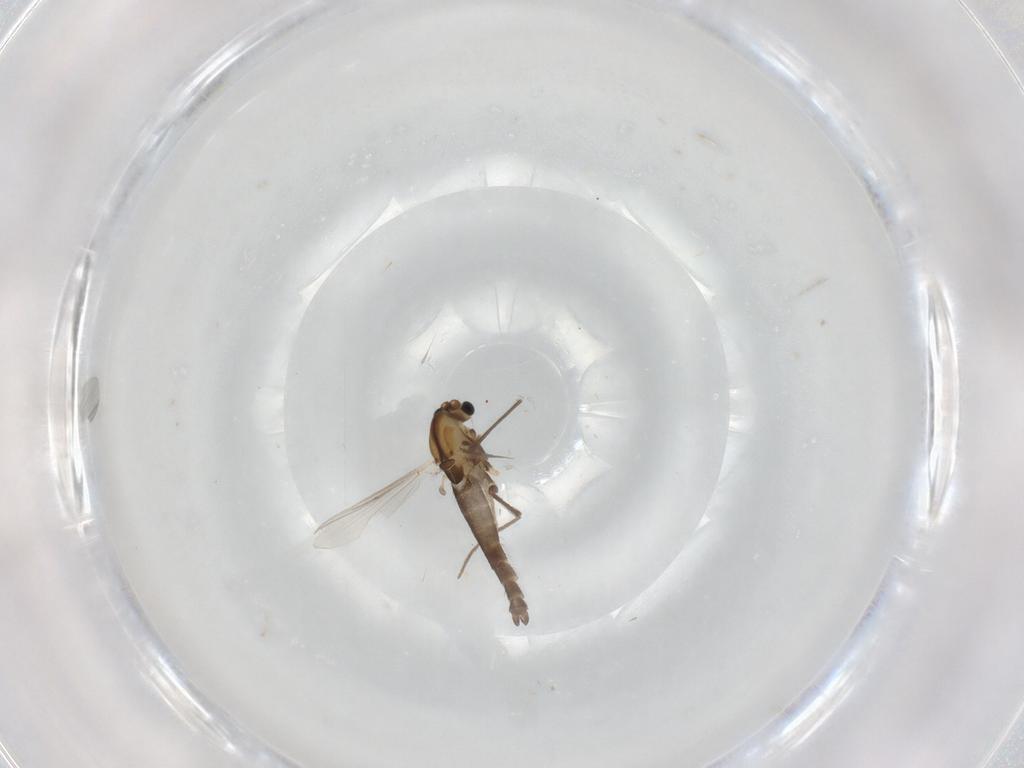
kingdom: Animalia
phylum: Arthropoda
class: Insecta
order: Diptera
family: Chironomidae
